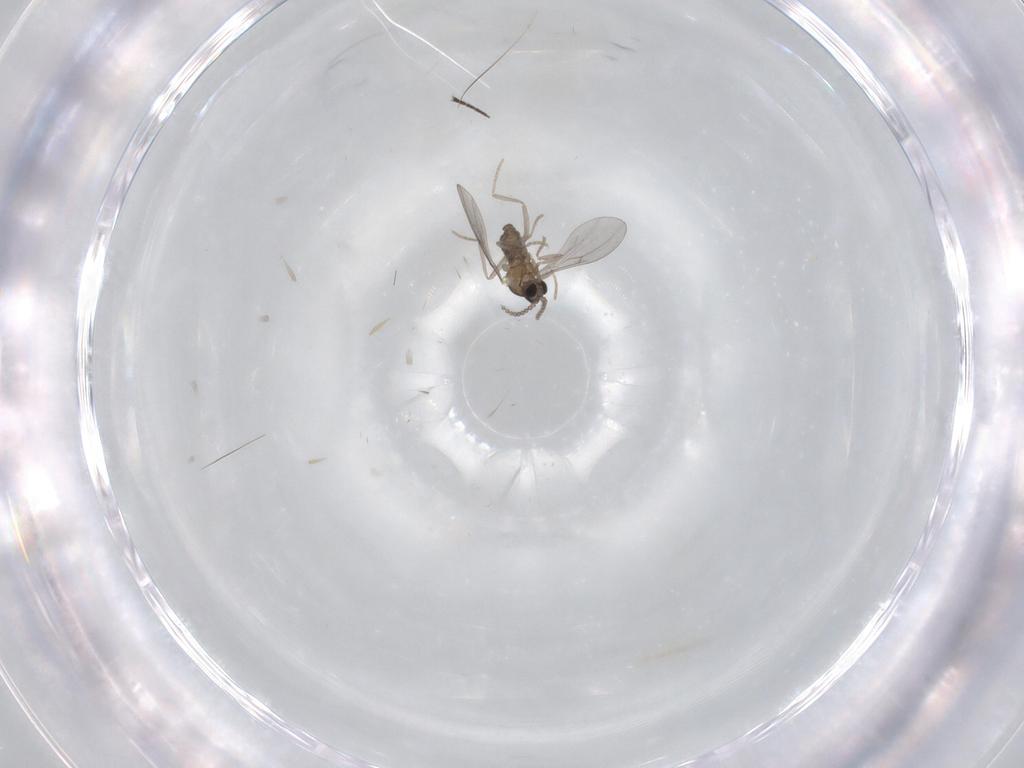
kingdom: Animalia
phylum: Arthropoda
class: Insecta
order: Diptera
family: Cecidomyiidae
